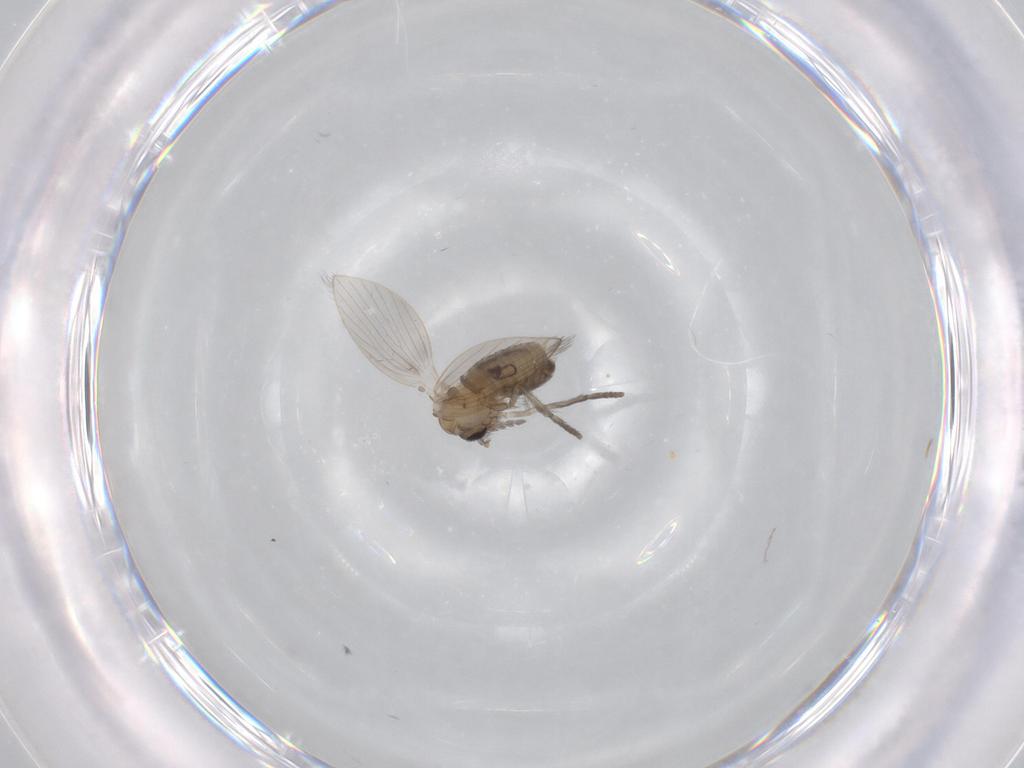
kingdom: Animalia
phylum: Arthropoda
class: Insecta
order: Diptera
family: Psychodidae
